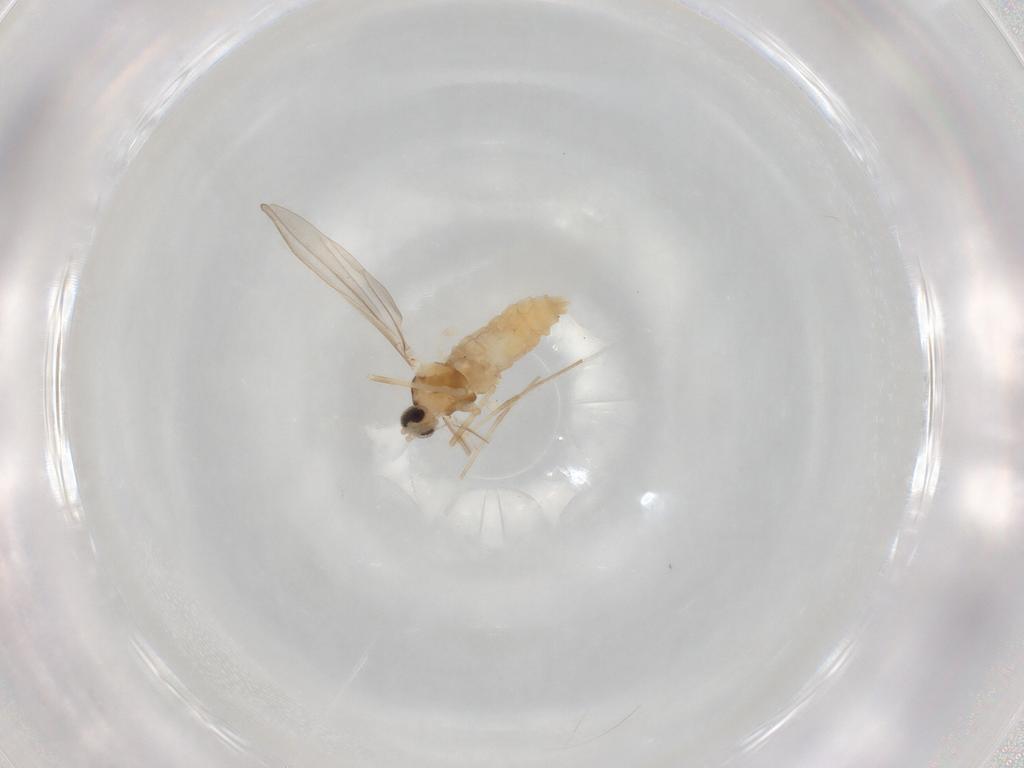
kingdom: Animalia
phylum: Arthropoda
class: Insecta
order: Diptera
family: Cecidomyiidae
